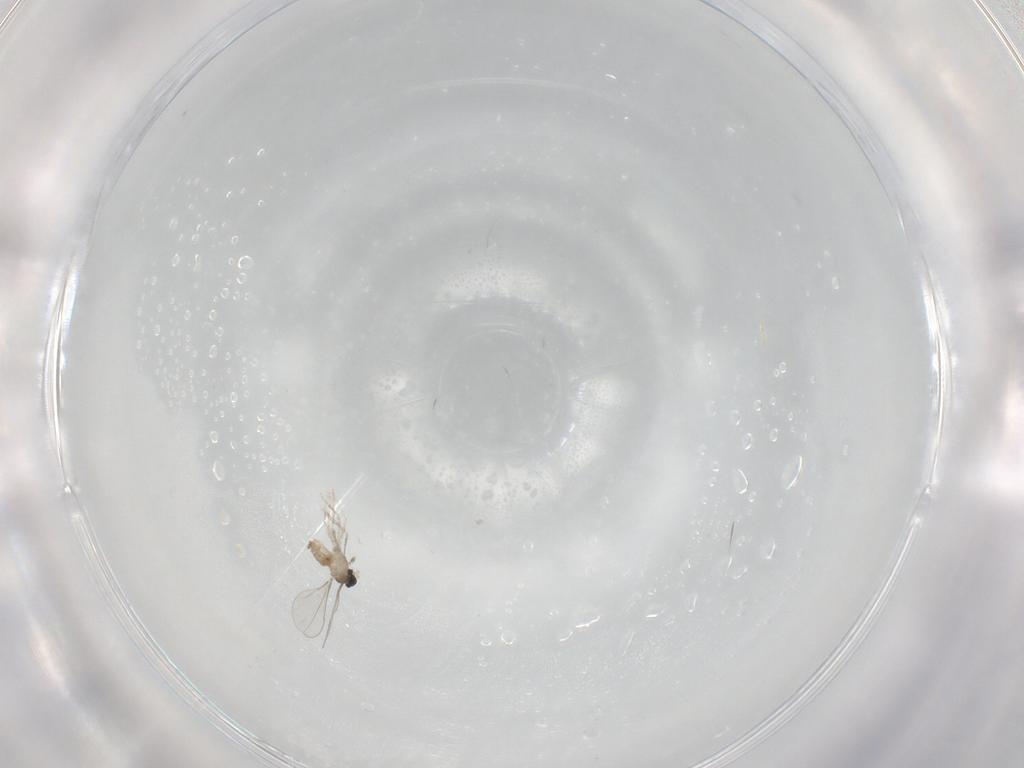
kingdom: Animalia
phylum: Arthropoda
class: Insecta
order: Diptera
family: Cecidomyiidae
